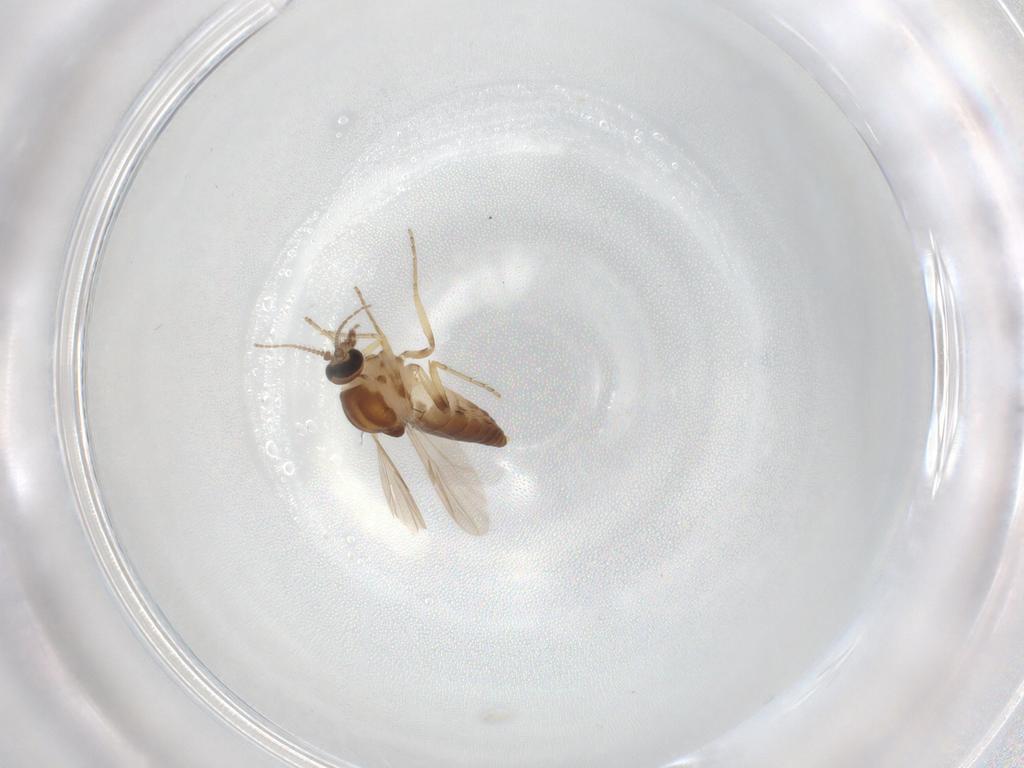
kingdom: Animalia
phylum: Arthropoda
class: Insecta
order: Diptera
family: Ceratopogonidae
